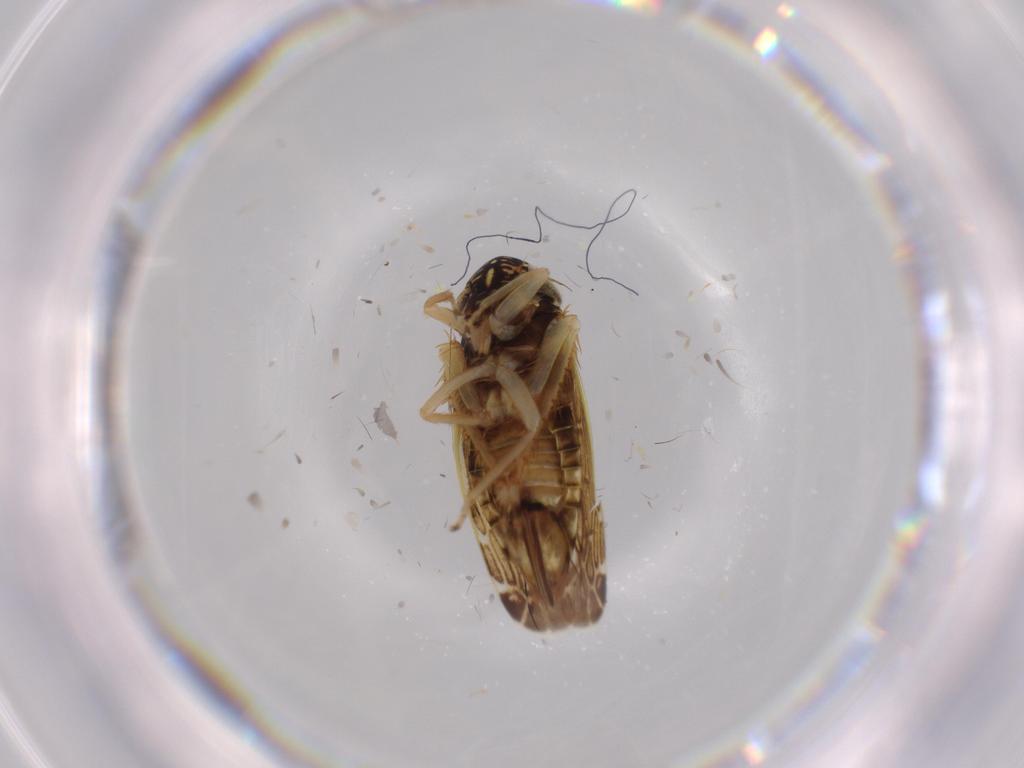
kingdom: Animalia
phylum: Arthropoda
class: Insecta
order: Hemiptera
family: Cicadellidae
